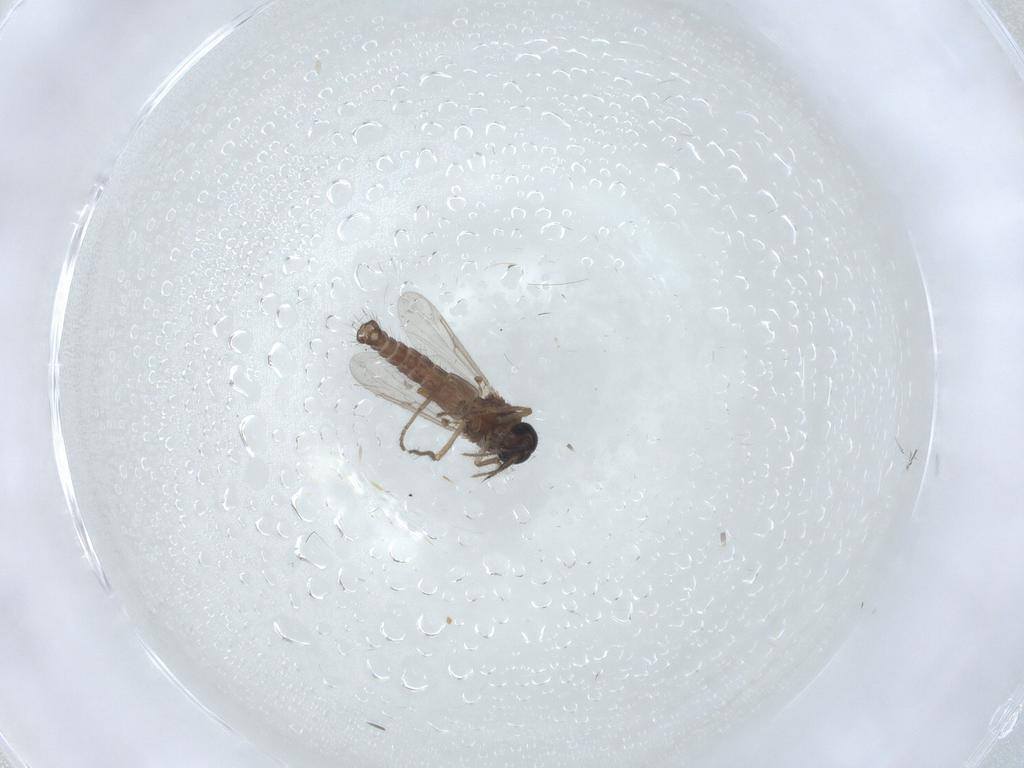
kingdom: Animalia
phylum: Arthropoda
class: Insecta
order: Diptera
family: Ceratopogonidae
